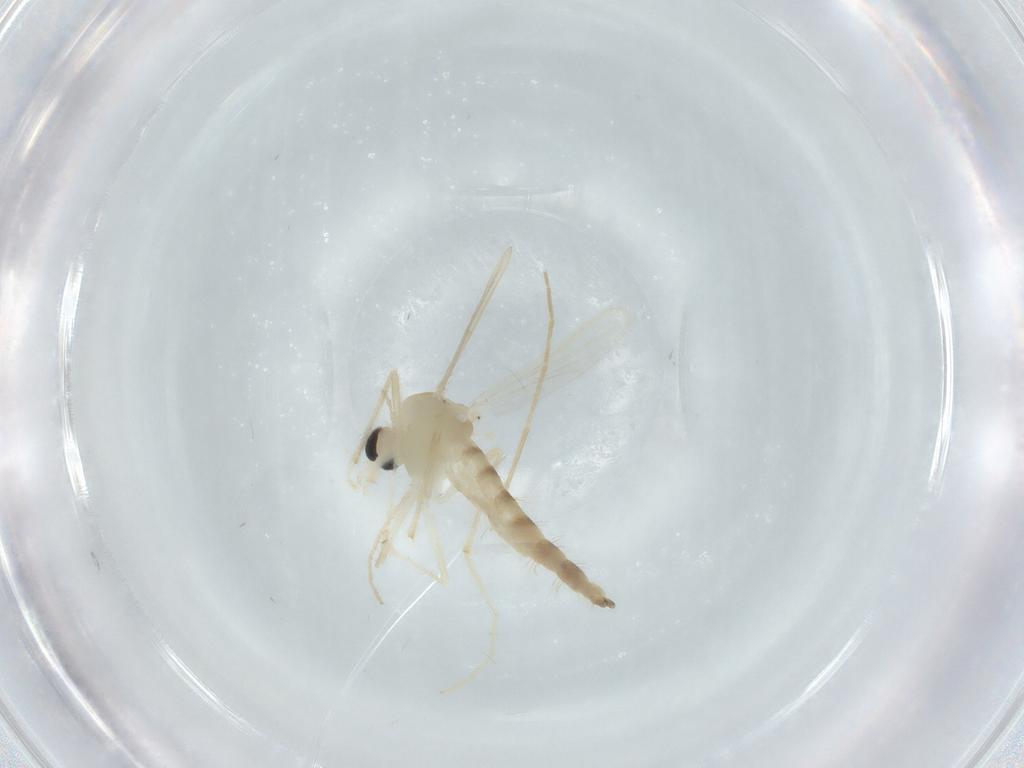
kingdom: Animalia
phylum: Arthropoda
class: Insecta
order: Diptera
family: Chironomidae
